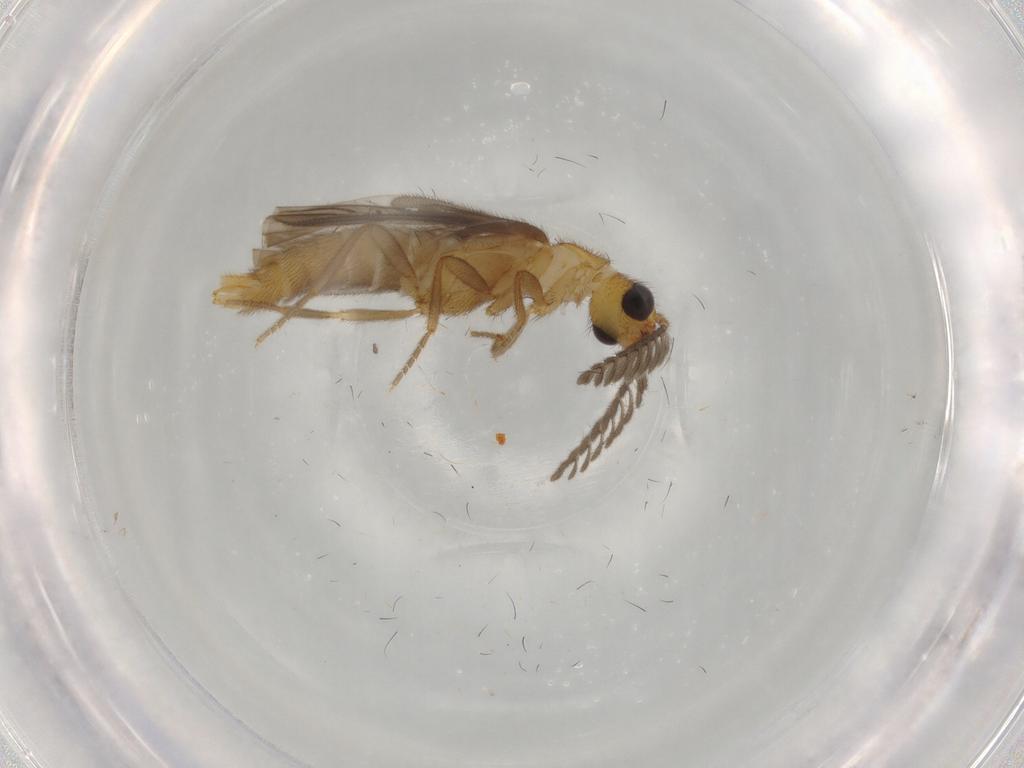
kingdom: Animalia
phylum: Arthropoda
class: Insecta
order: Coleoptera
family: Phengodidae
